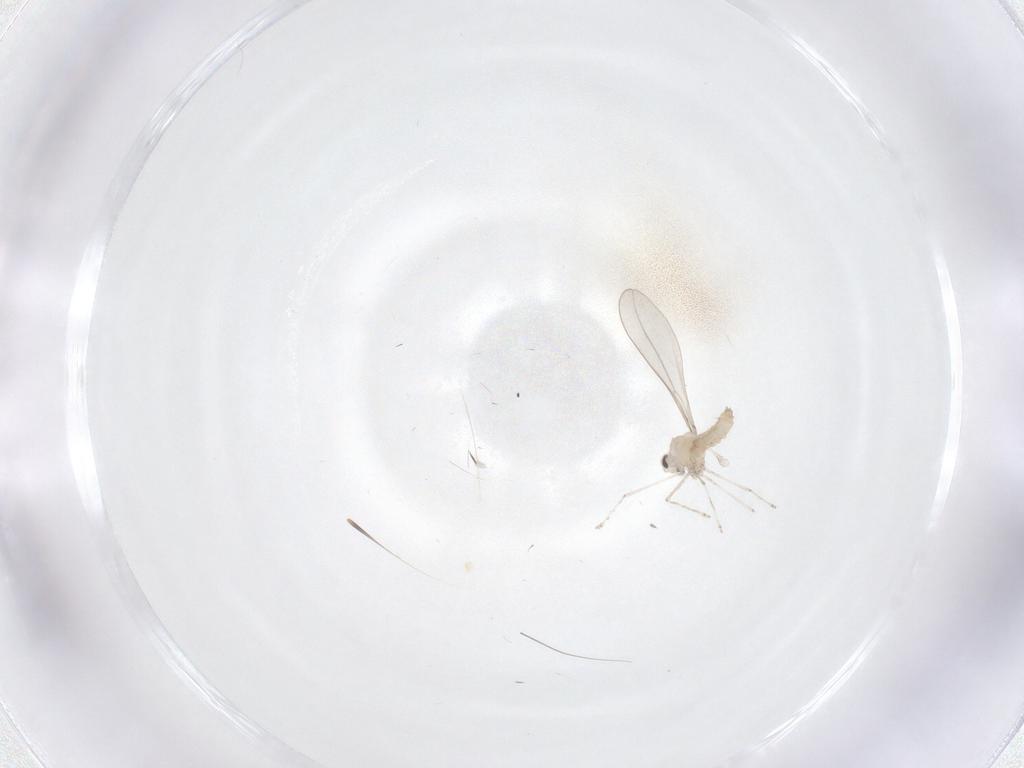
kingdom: Animalia
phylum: Arthropoda
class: Insecta
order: Diptera
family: Cecidomyiidae
